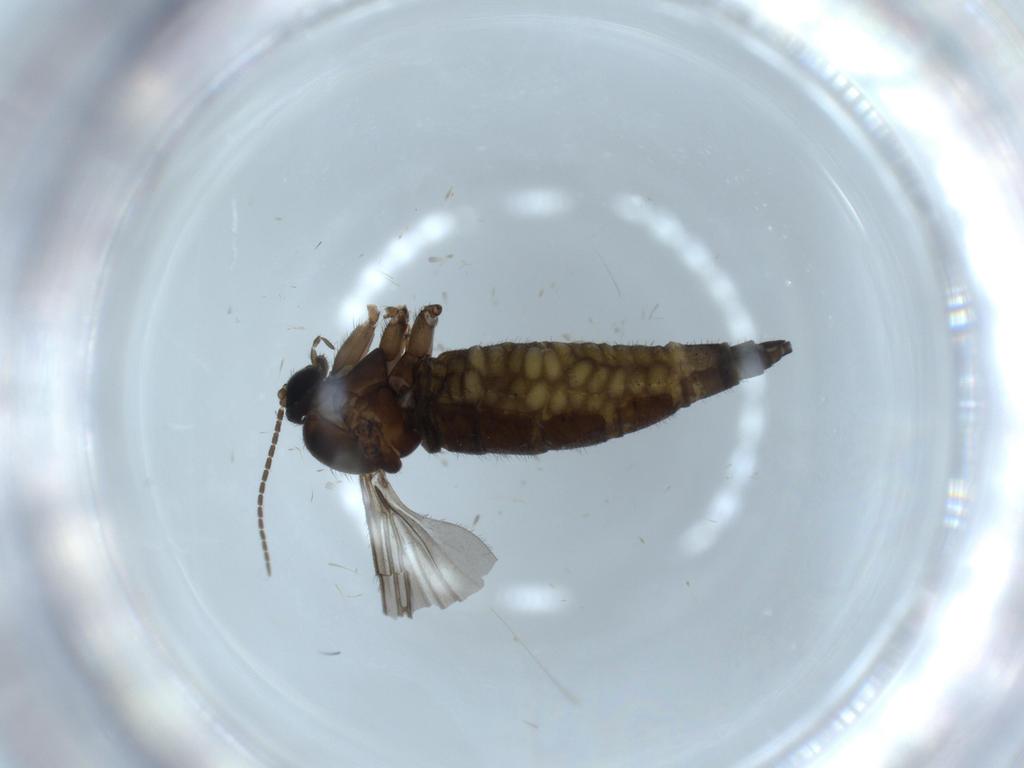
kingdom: Animalia
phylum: Arthropoda
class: Insecta
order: Diptera
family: Sciaridae
